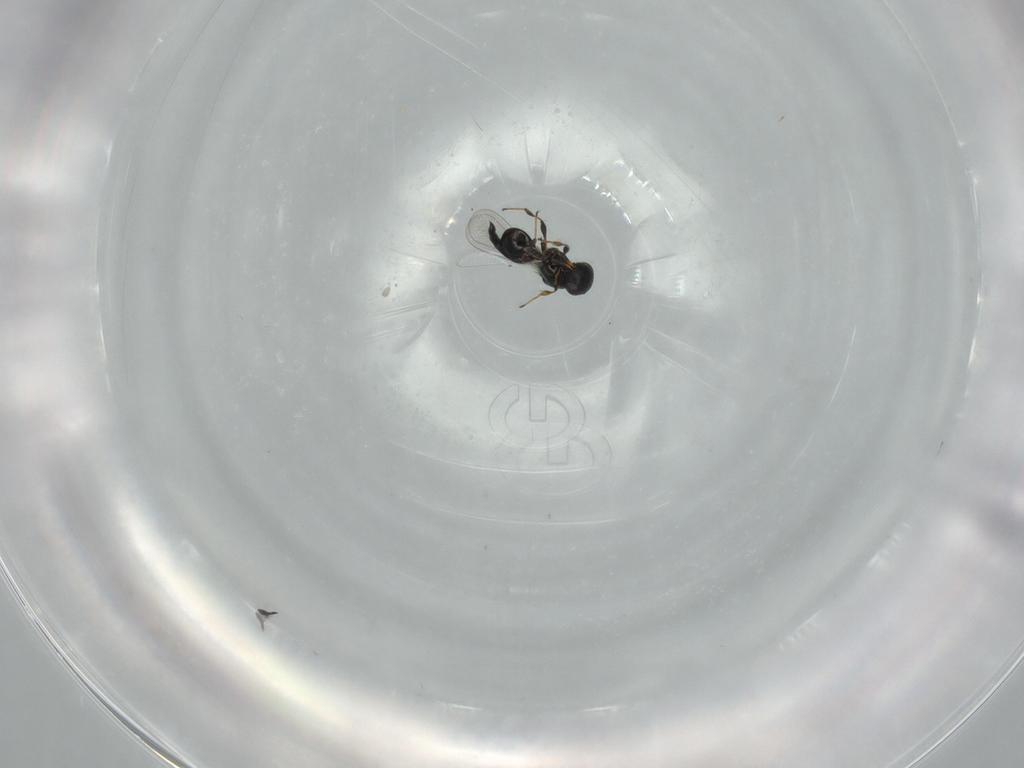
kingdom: Animalia
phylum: Arthropoda
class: Insecta
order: Hymenoptera
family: Platygastridae
